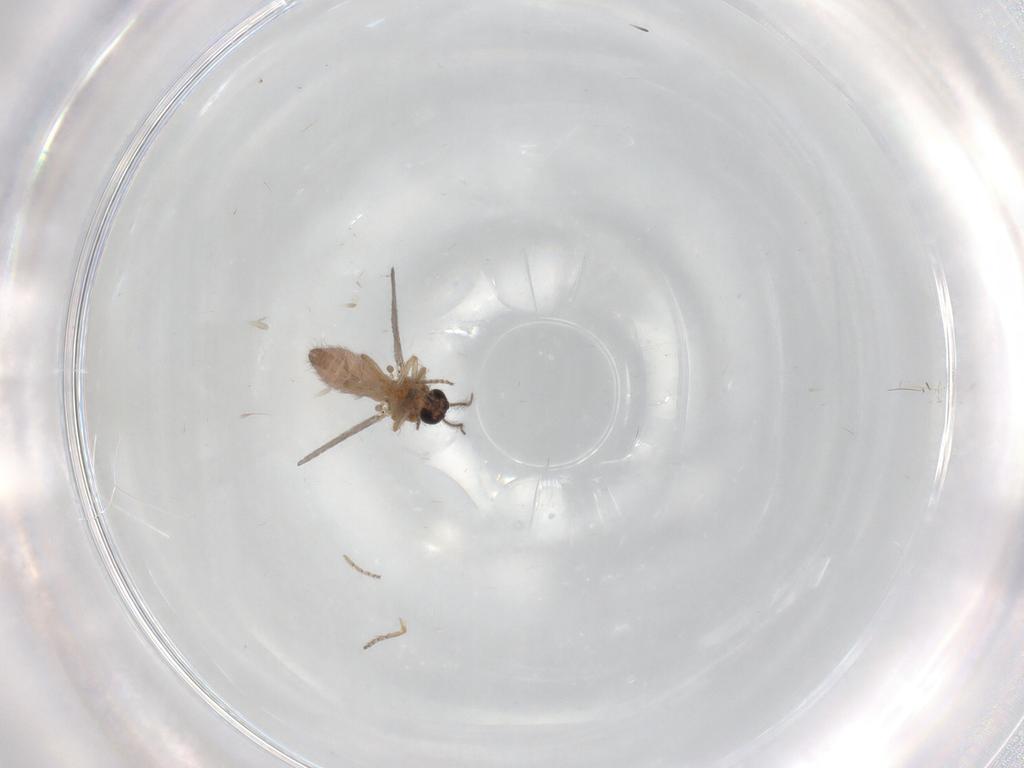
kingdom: Animalia
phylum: Arthropoda
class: Insecta
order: Diptera
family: Ceratopogonidae
